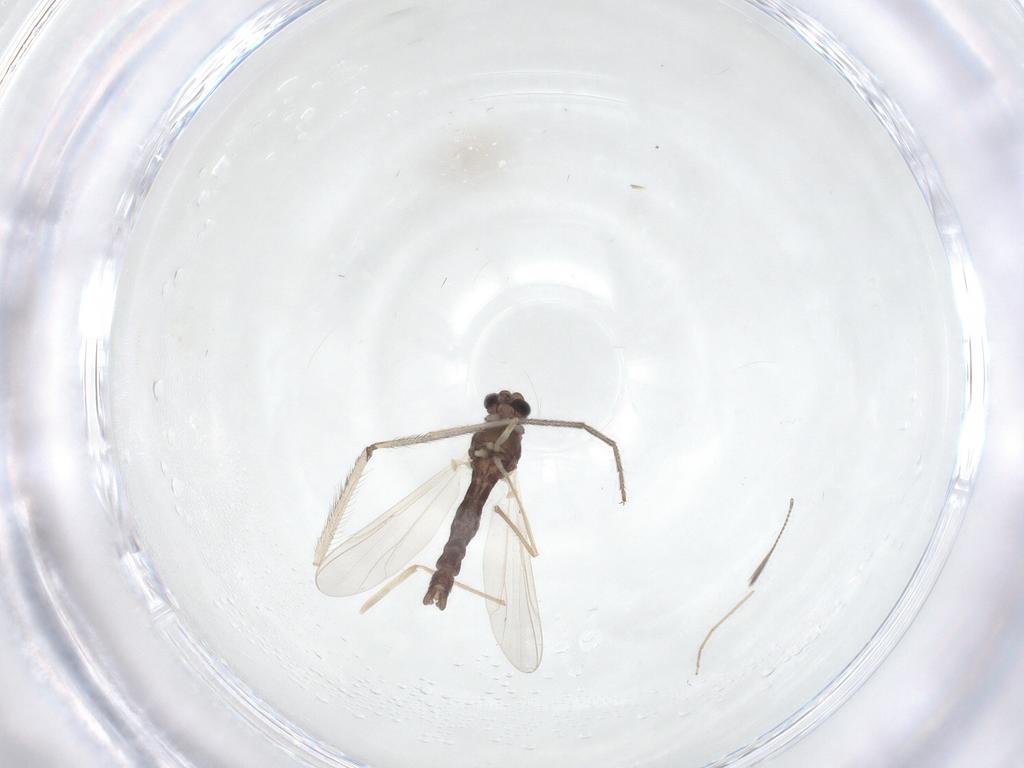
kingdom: Animalia
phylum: Arthropoda
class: Insecta
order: Diptera
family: Chironomidae
